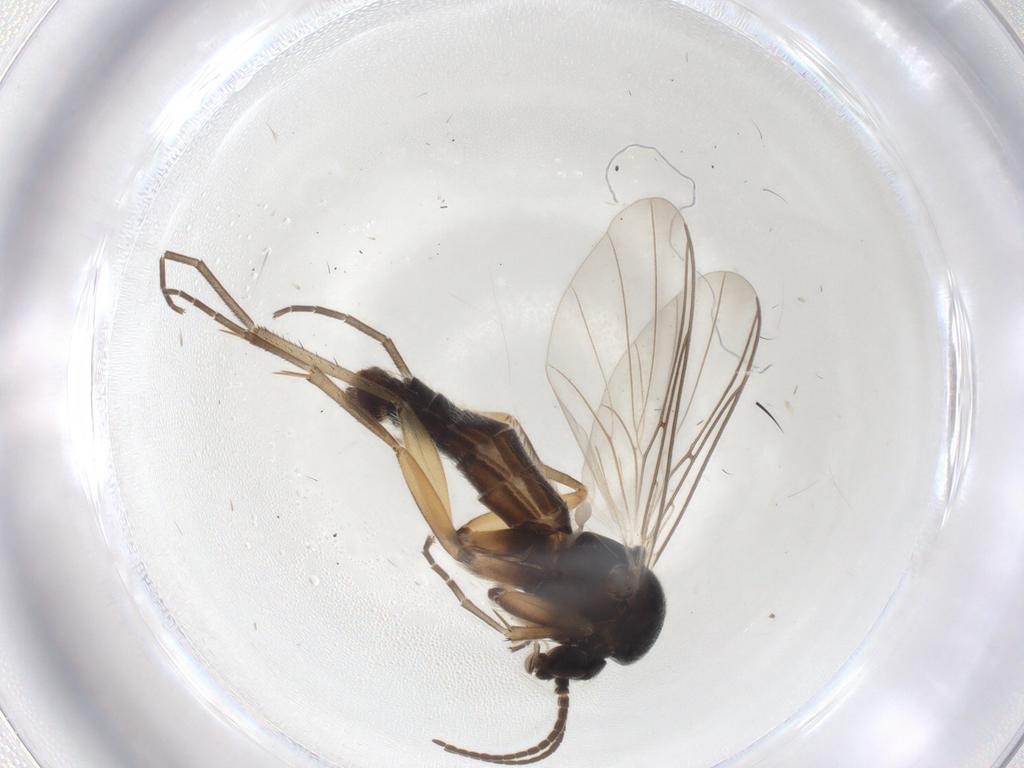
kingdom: Animalia
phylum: Arthropoda
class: Insecta
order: Diptera
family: Mycetophilidae
